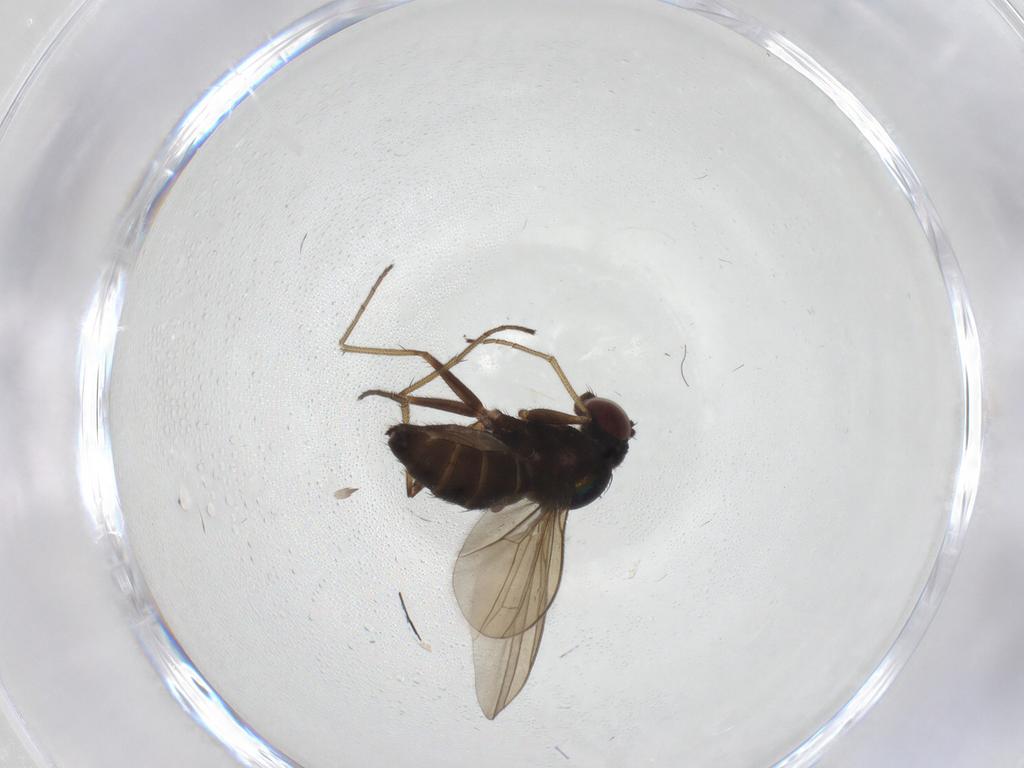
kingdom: Animalia
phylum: Arthropoda
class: Insecta
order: Diptera
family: Dolichopodidae
